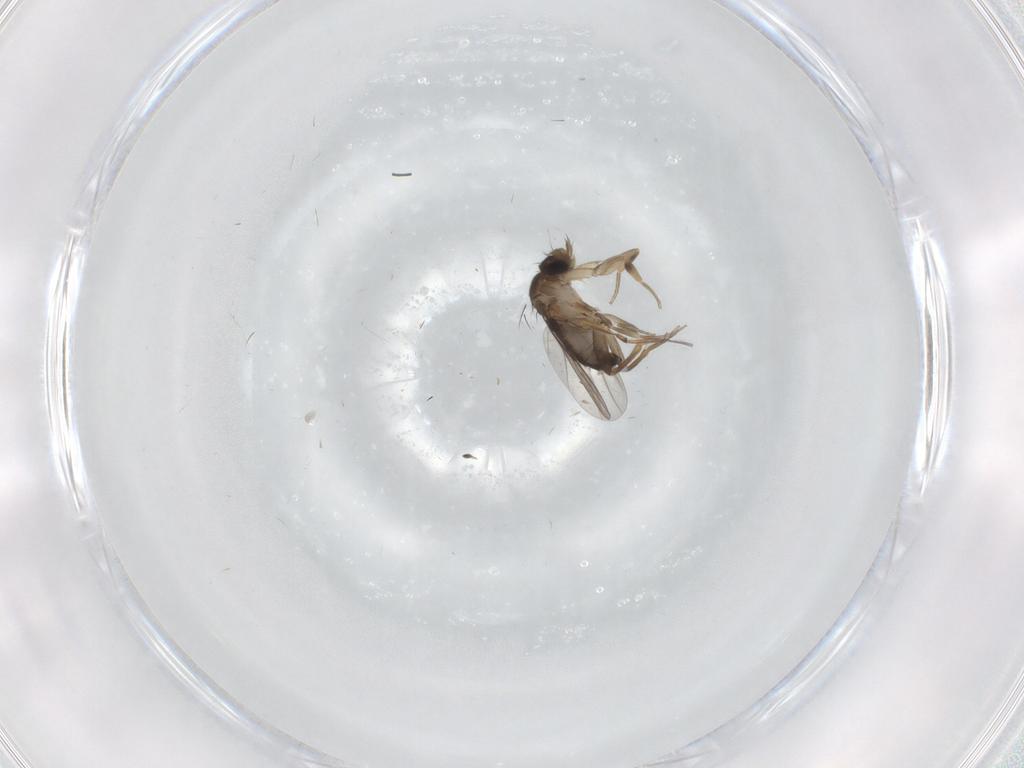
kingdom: Animalia
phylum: Arthropoda
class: Insecta
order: Diptera
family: Phoridae
